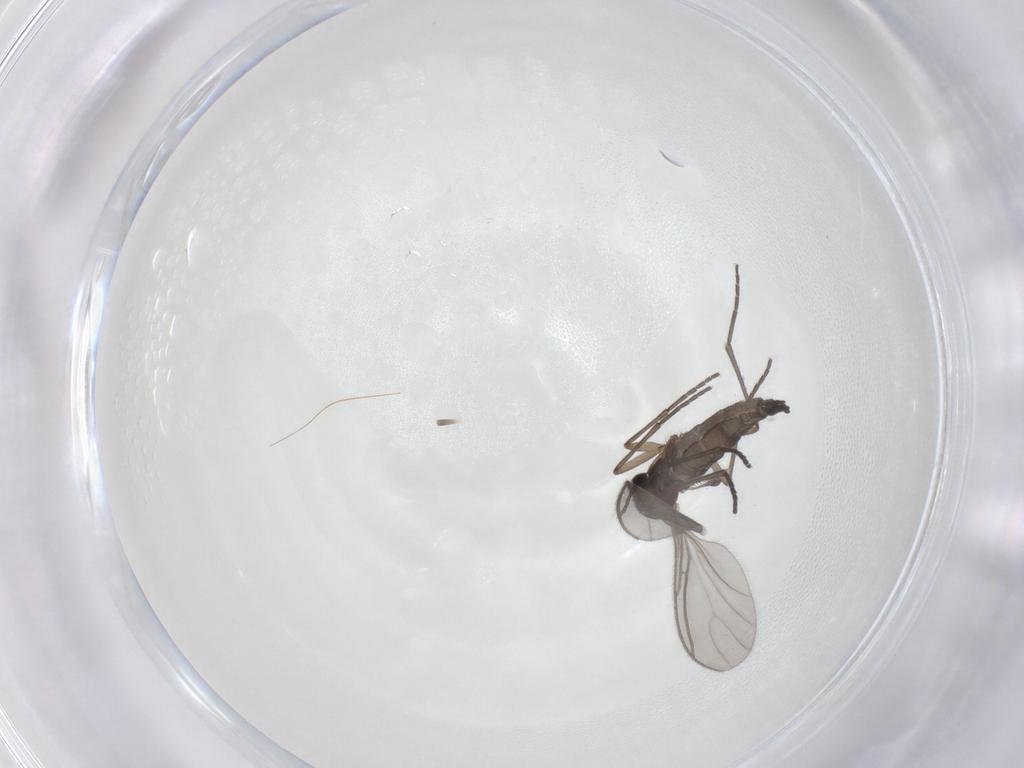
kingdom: Animalia
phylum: Arthropoda
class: Insecta
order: Diptera
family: Sciaridae
